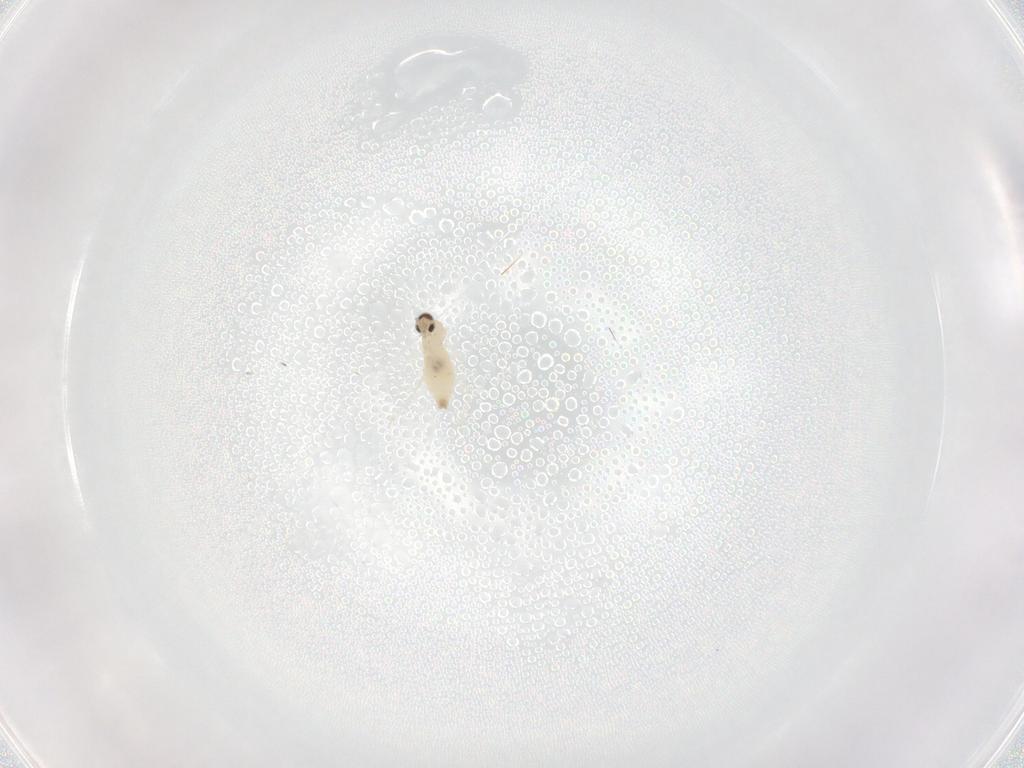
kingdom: Animalia
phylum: Arthropoda
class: Insecta
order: Diptera
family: Cecidomyiidae
